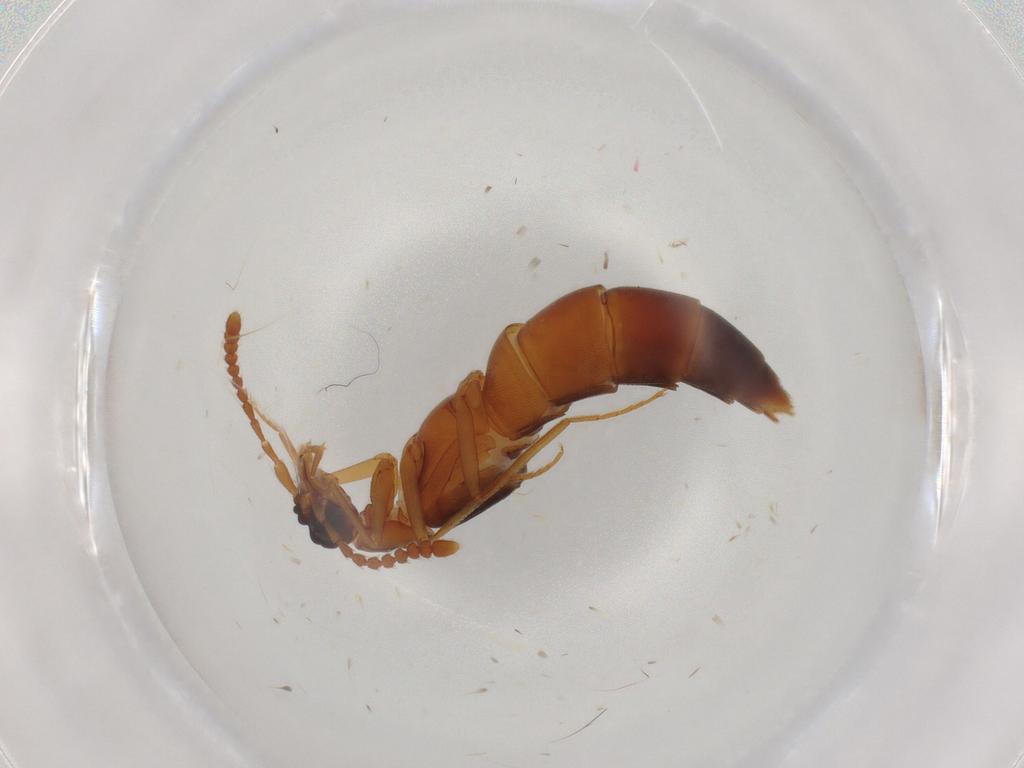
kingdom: Animalia
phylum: Arthropoda
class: Insecta
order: Coleoptera
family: Staphylinidae
